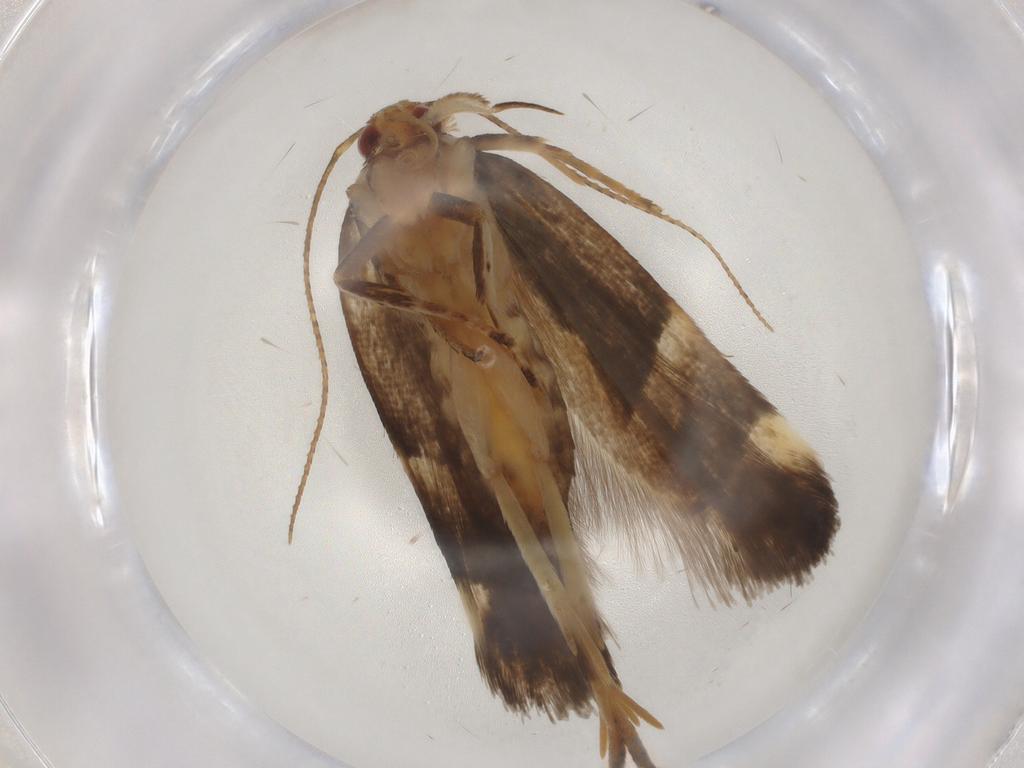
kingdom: Animalia
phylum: Arthropoda
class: Insecta
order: Lepidoptera
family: Gelechiidae
